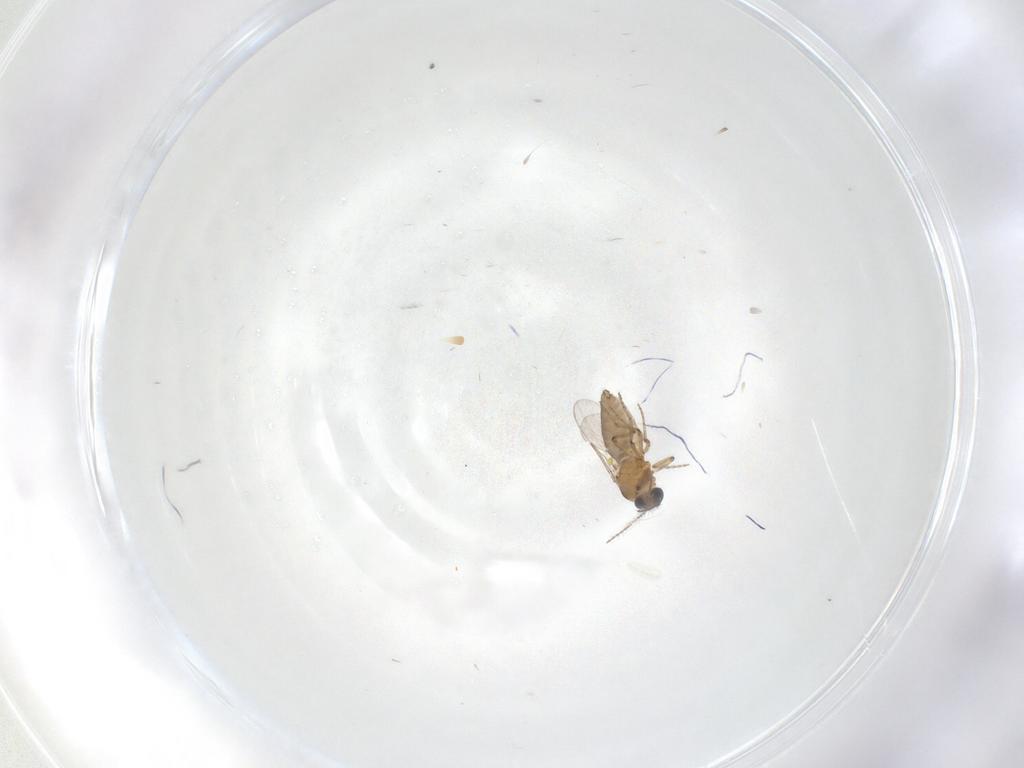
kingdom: Animalia
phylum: Arthropoda
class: Insecta
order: Diptera
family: Ceratopogonidae
